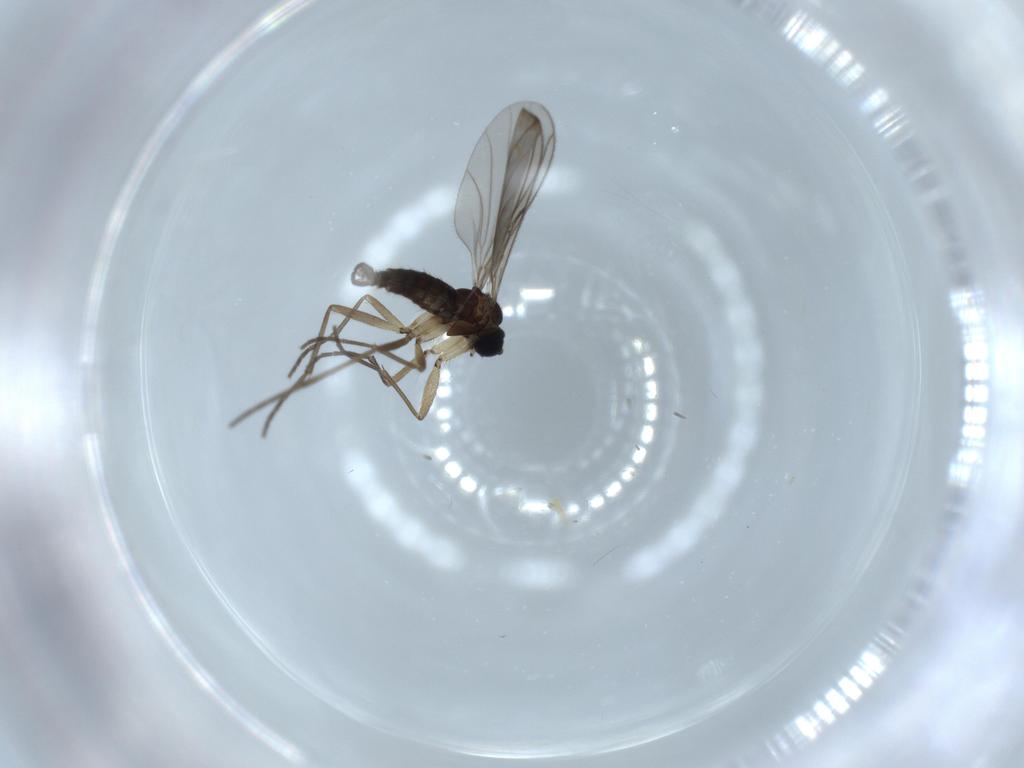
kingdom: Animalia
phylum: Arthropoda
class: Insecta
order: Diptera
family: Sciaridae
